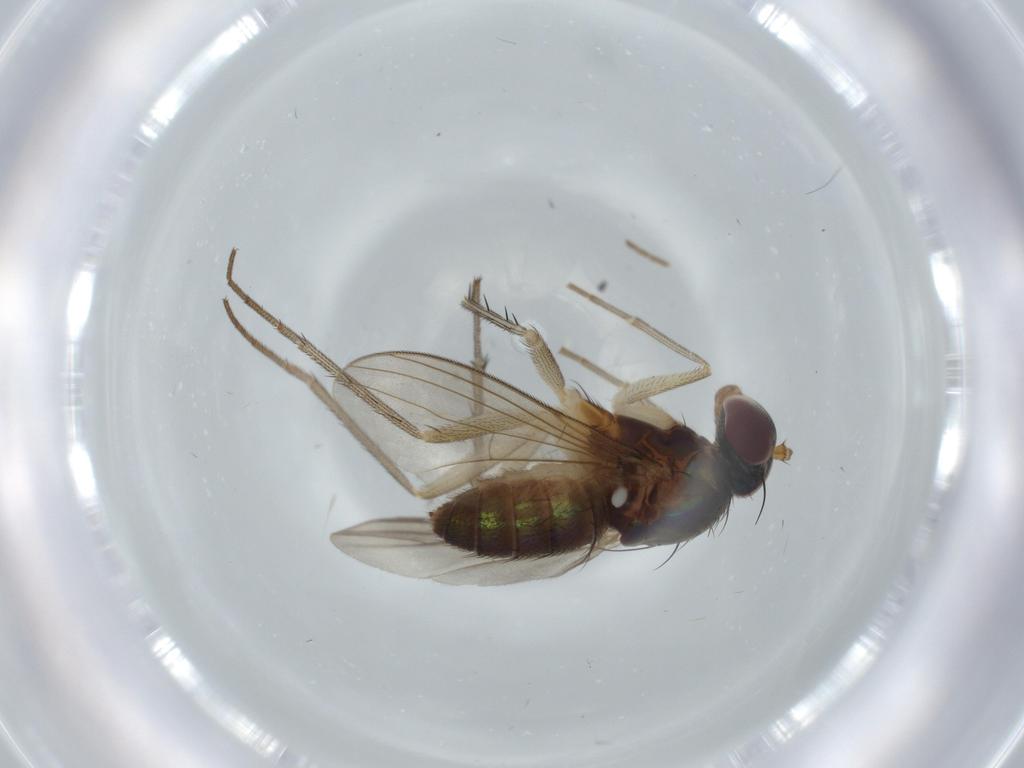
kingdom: Animalia
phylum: Arthropoda
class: Insecta
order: Diptera
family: Dolichopodidae
